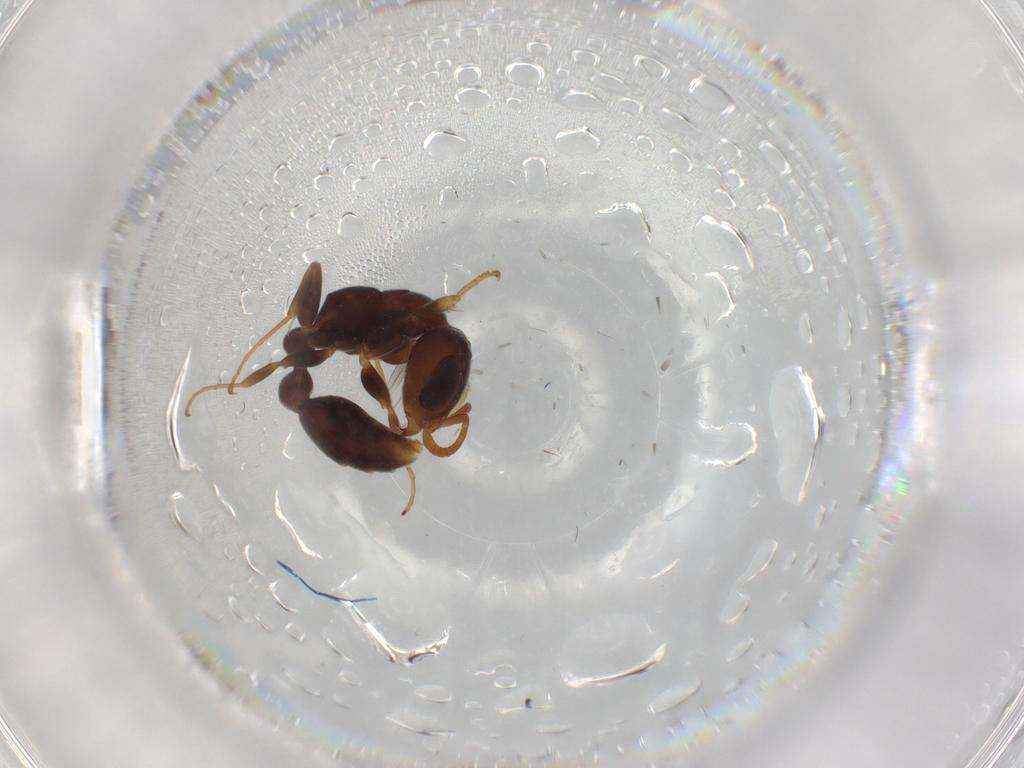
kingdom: Animalia
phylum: Arthropoda
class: Insecta
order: Hymenoptera
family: Formicidae
